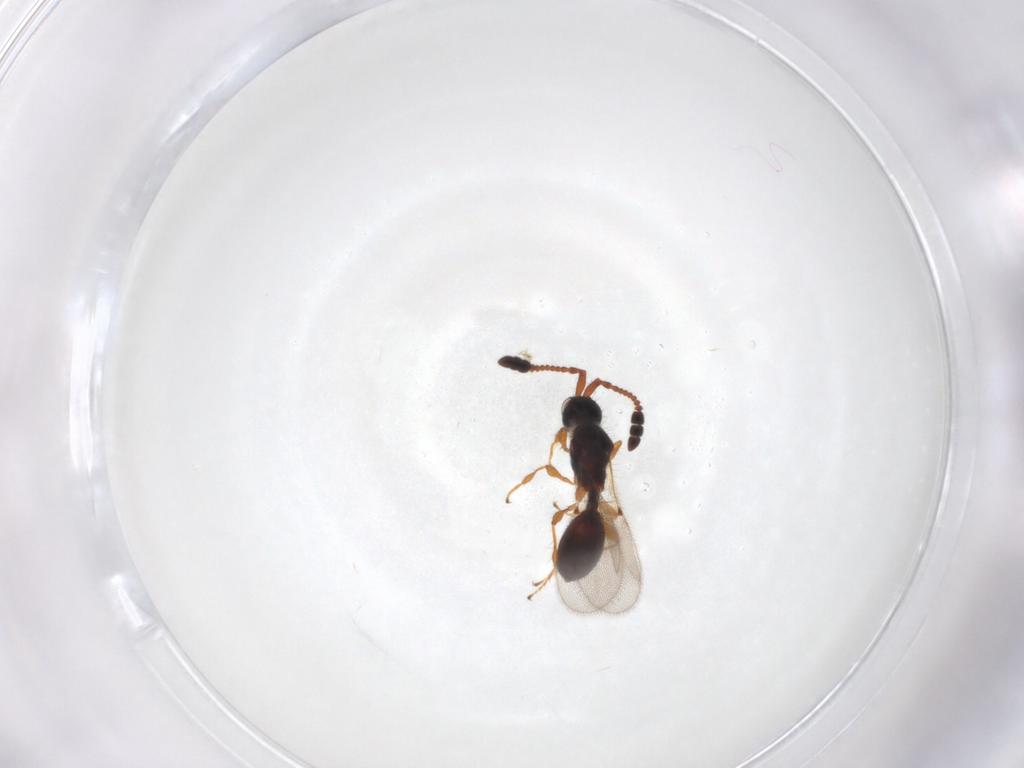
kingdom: Animalia
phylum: Arthropoda
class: Insecta
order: Hymenoptera
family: Diapriidae
